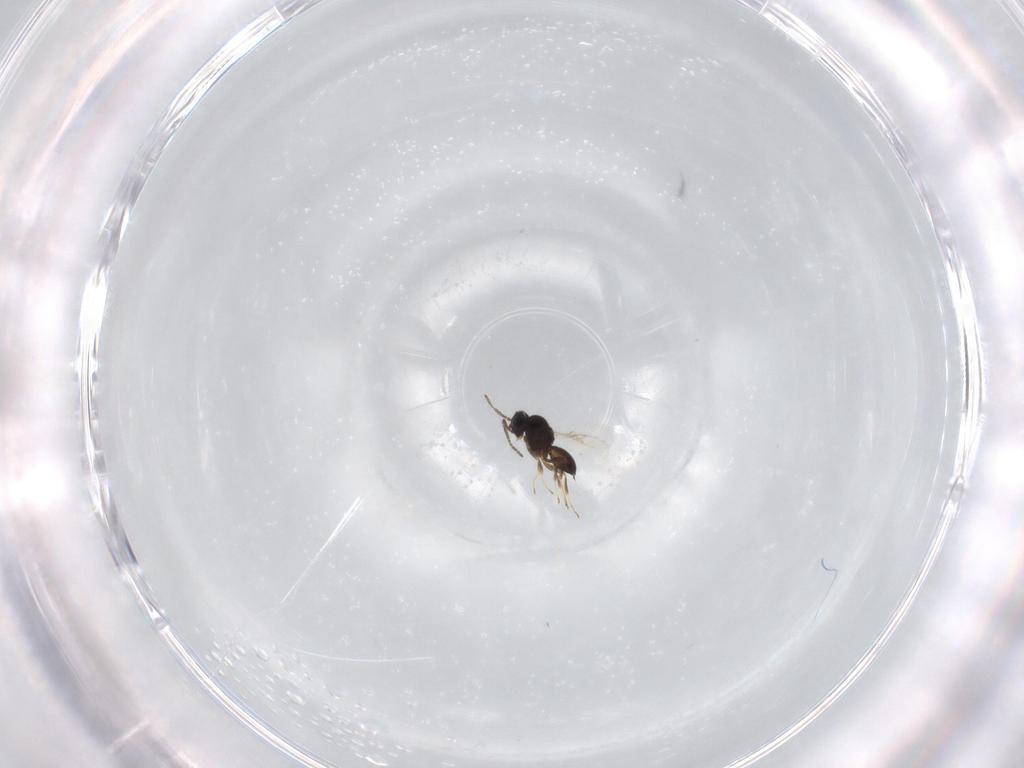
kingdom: Animalia
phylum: Arthropoda
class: Insecta
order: Hymenoptera
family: Scelionidae
